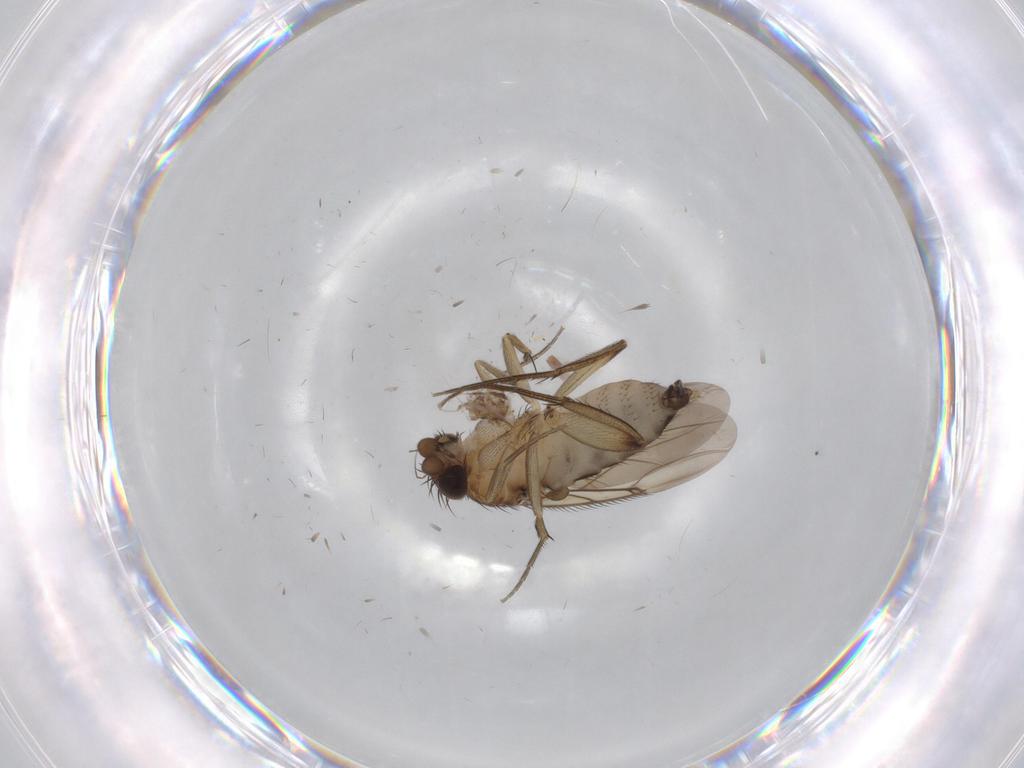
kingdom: Animalia
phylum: Arthropoda
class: Insecta
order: Diptera
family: Phoridae
